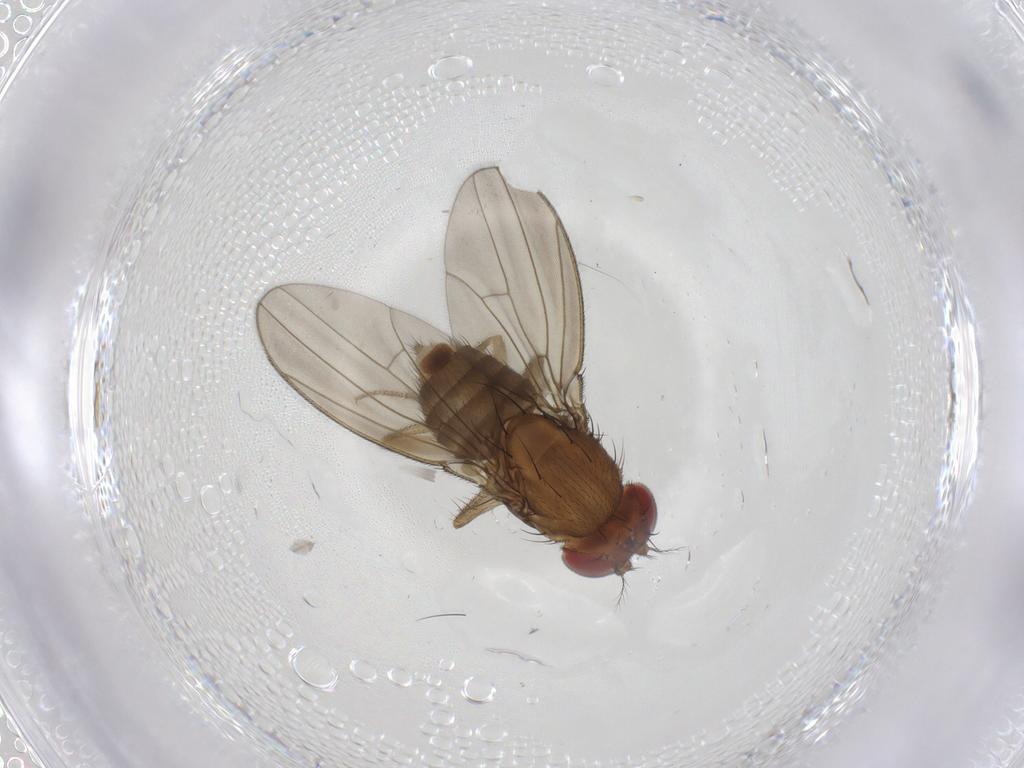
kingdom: Animalia
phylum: Arthropoda
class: Insecta
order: Diptera
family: Drosophilidae
